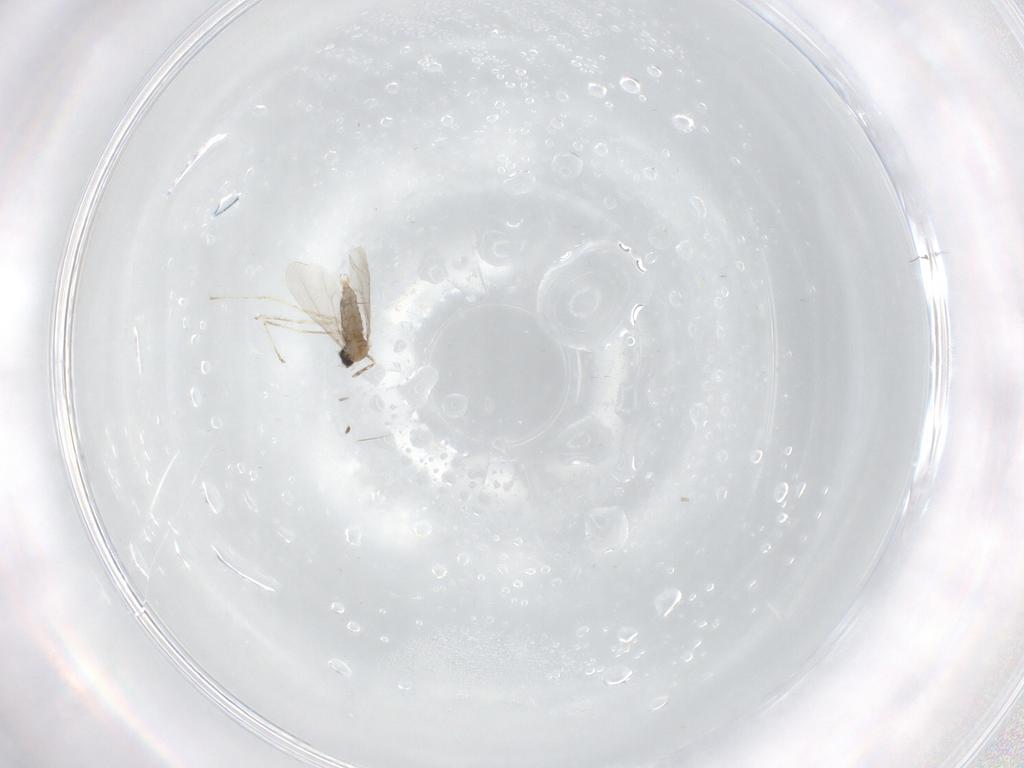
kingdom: Animalia
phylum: Arthropoda
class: Insecta
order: Diptera
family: Cecidomyiidae
